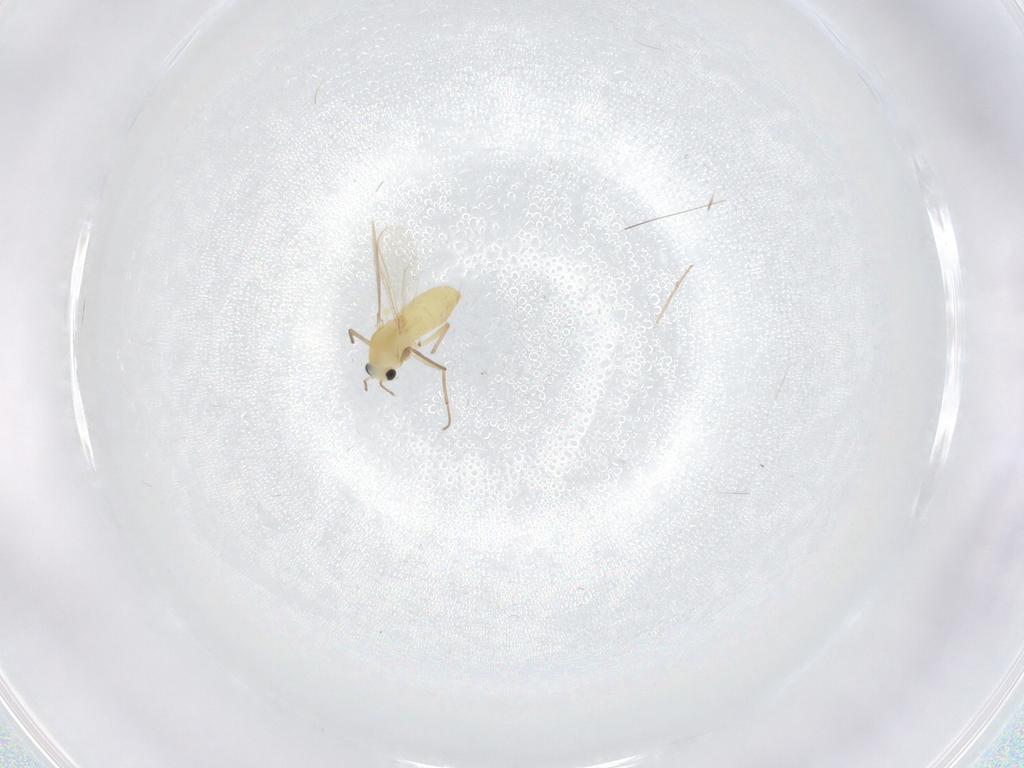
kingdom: Animalia
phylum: Arthropoda
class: Insecta
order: Diptera
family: Chironomidae
